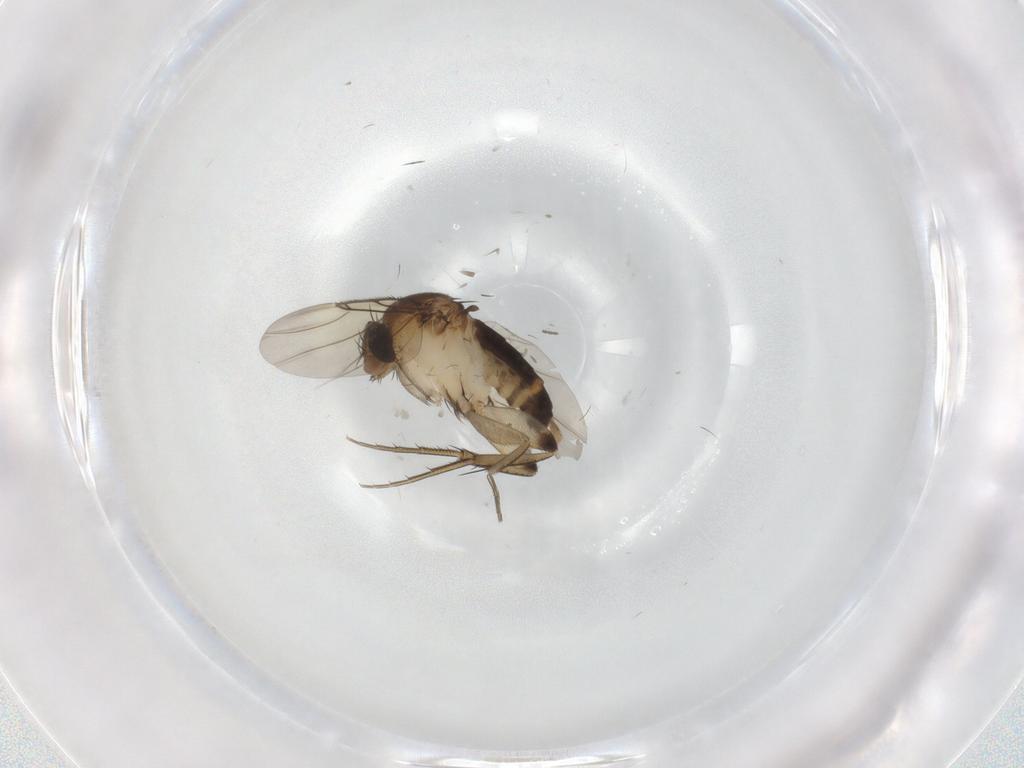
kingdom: Animalia
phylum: Arthropoda
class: Insecta
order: Diptera
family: Phoridae
